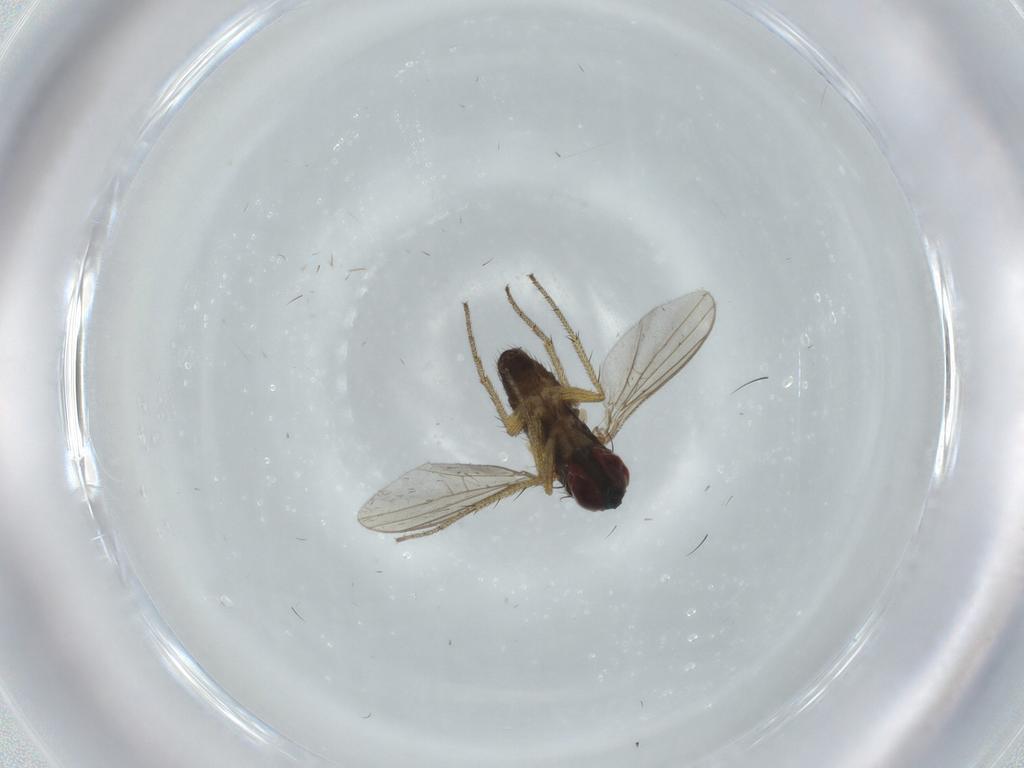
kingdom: Animalia
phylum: Arthropoda
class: Insecta
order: Diptera
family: Dolichopodidae
